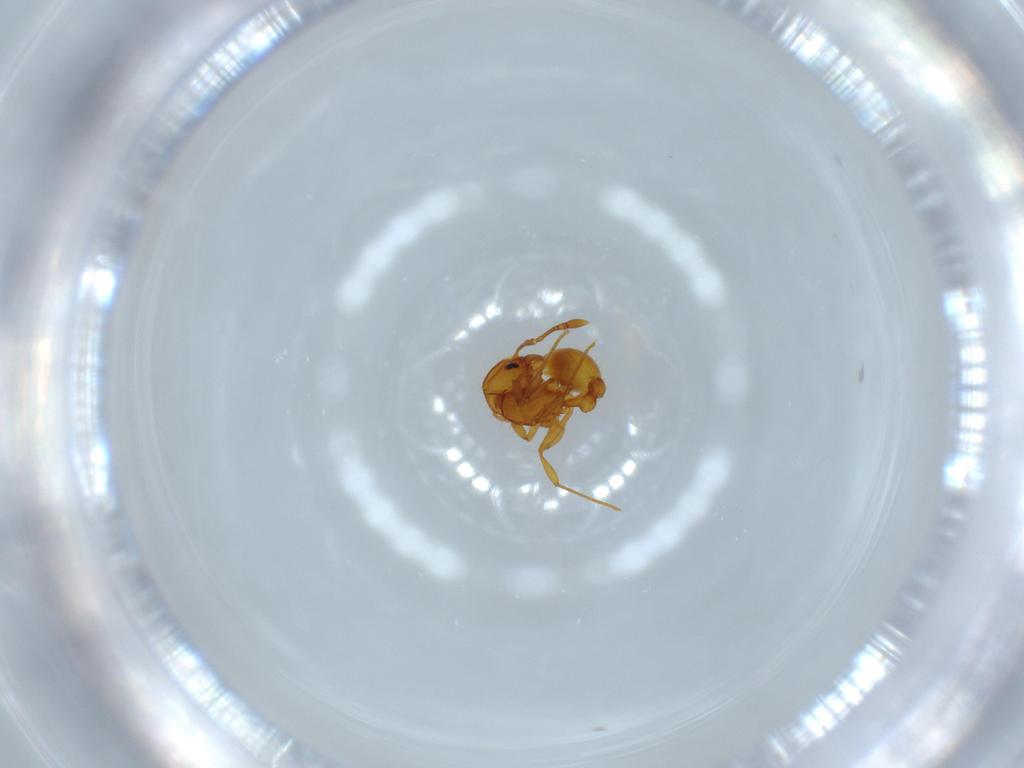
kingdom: Animalia
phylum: Arthropoda
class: Insecta
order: Hymenoptera
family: Formicidae
